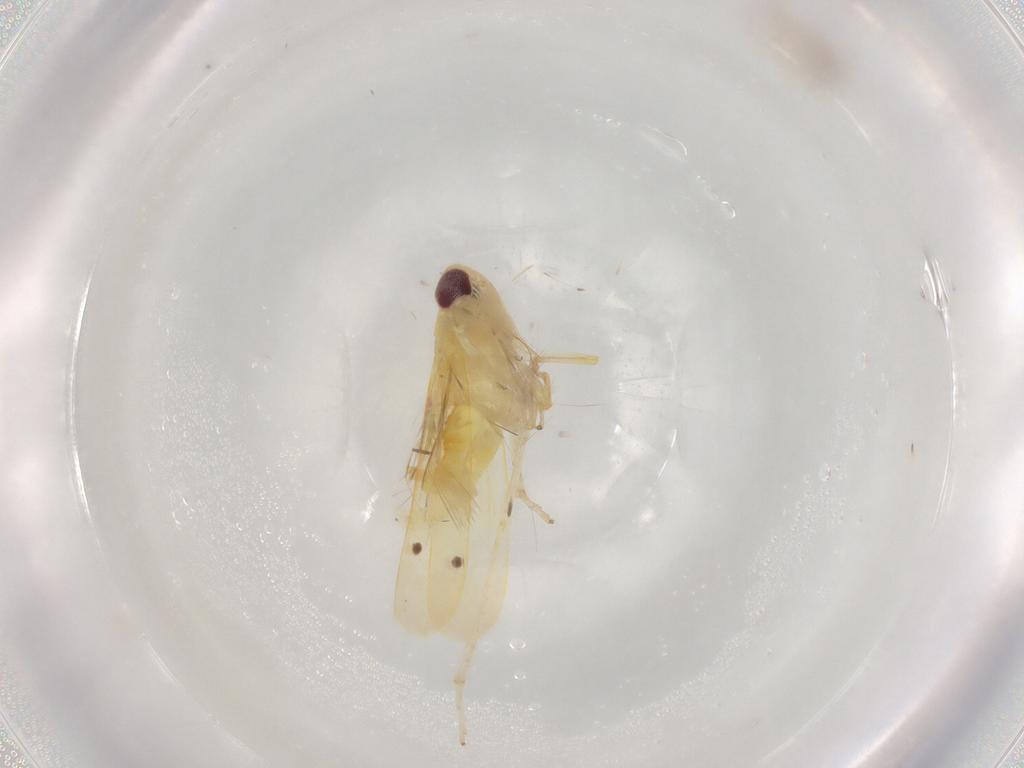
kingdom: Animalia
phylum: Arthropoda
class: Insecta
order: Hemiptera
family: Cicadellidae
